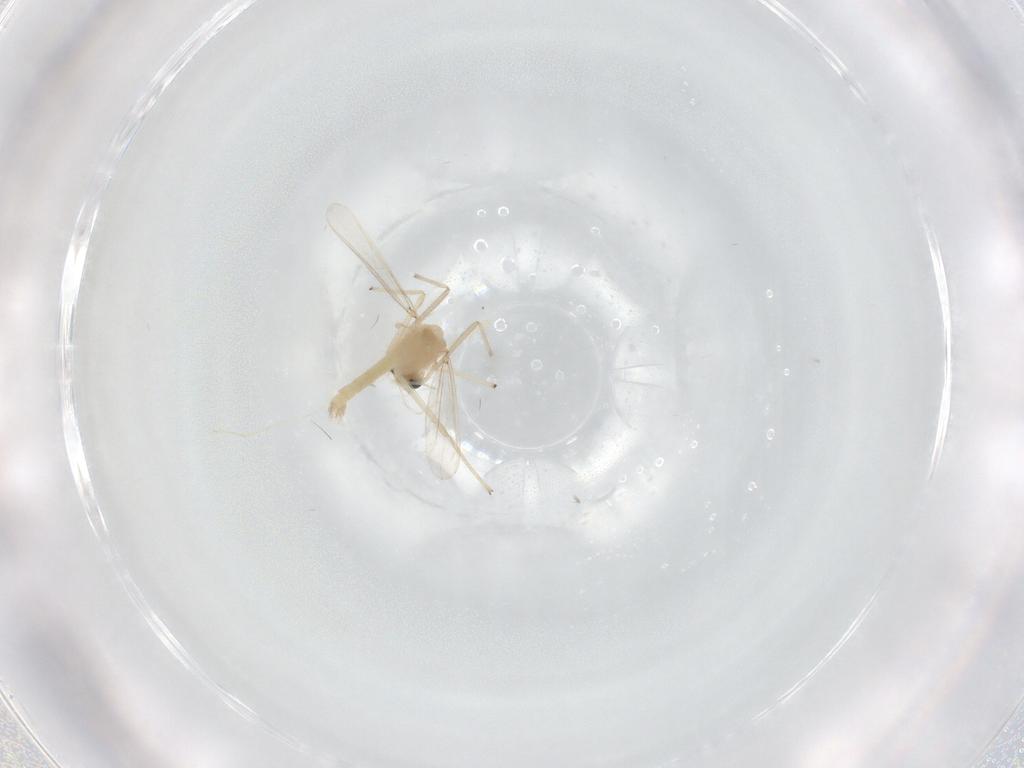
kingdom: Animalia
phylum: Arthropoda
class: Insecta
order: Diptera
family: Chironomidae
